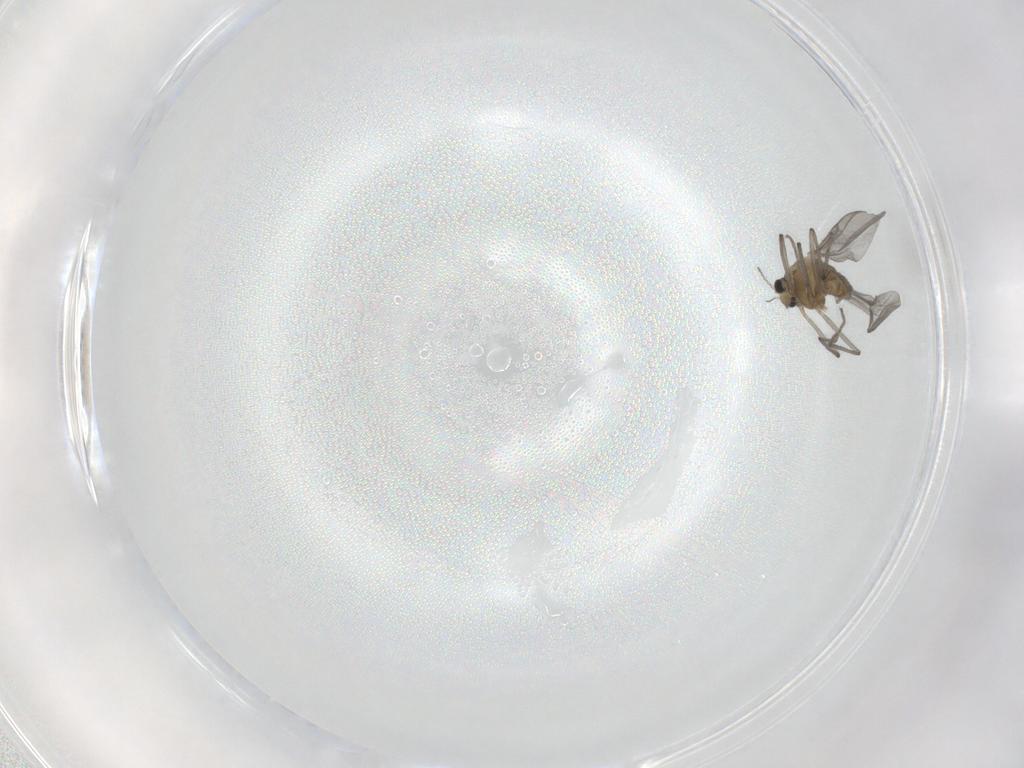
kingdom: Animalia
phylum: Arthropoda
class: Insecta
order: Diptera
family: Chironomidae
